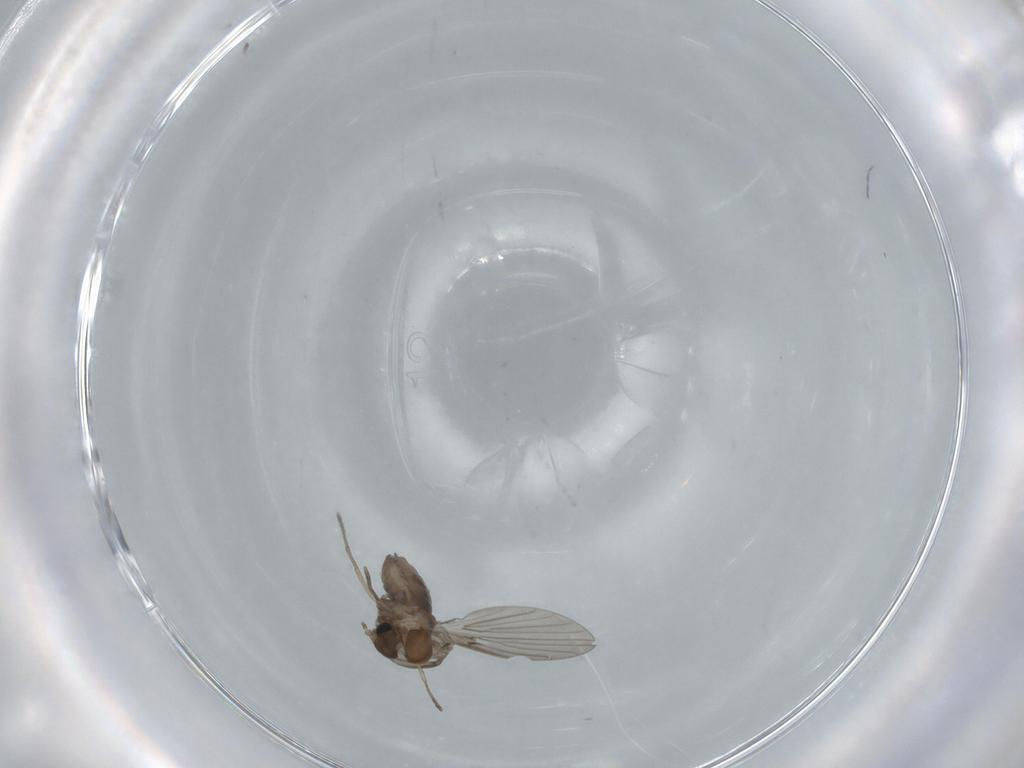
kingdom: Animalia
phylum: Arthropoda
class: Insecta
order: Diptera
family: Psychodidae
